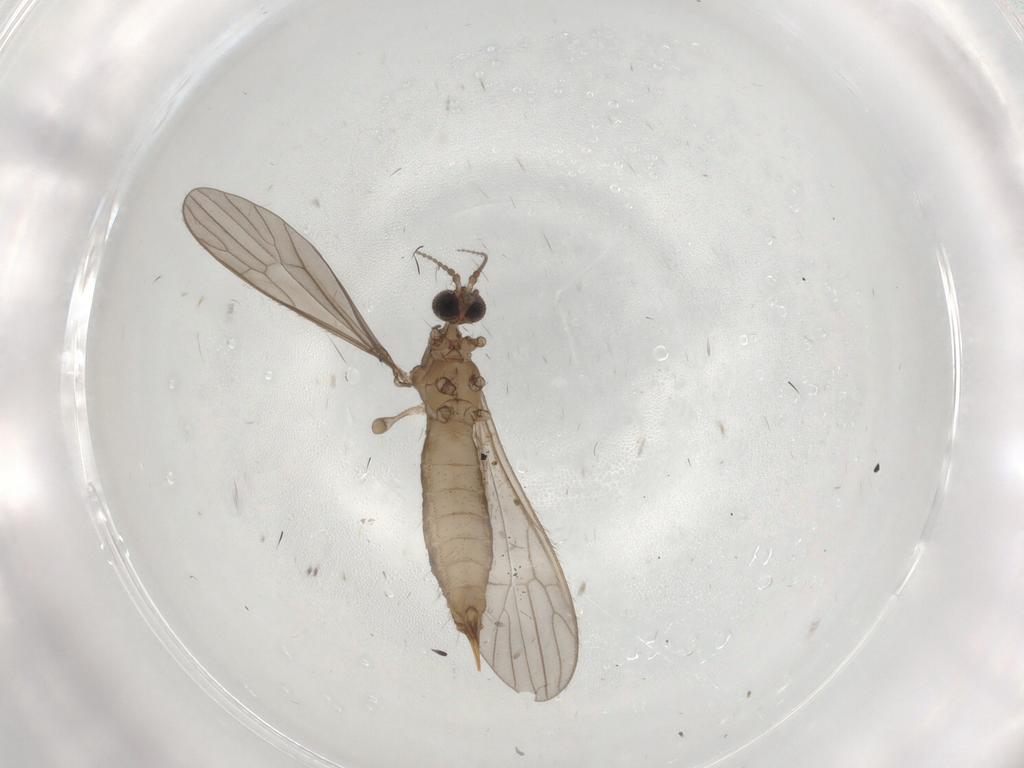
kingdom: Animalia
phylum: Arthropoda
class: Insecta
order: Diptera
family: Limoniidae
